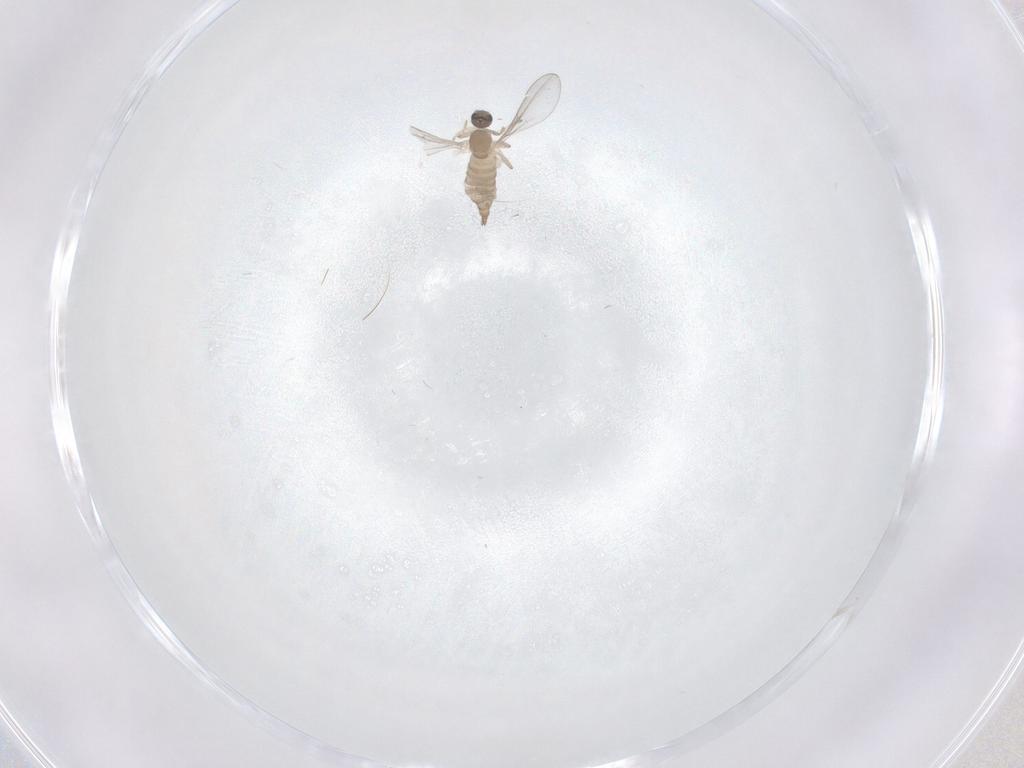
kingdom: Animalia
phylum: Arthropoda
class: Insecta
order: Diptera
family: Cecidomyiidae
